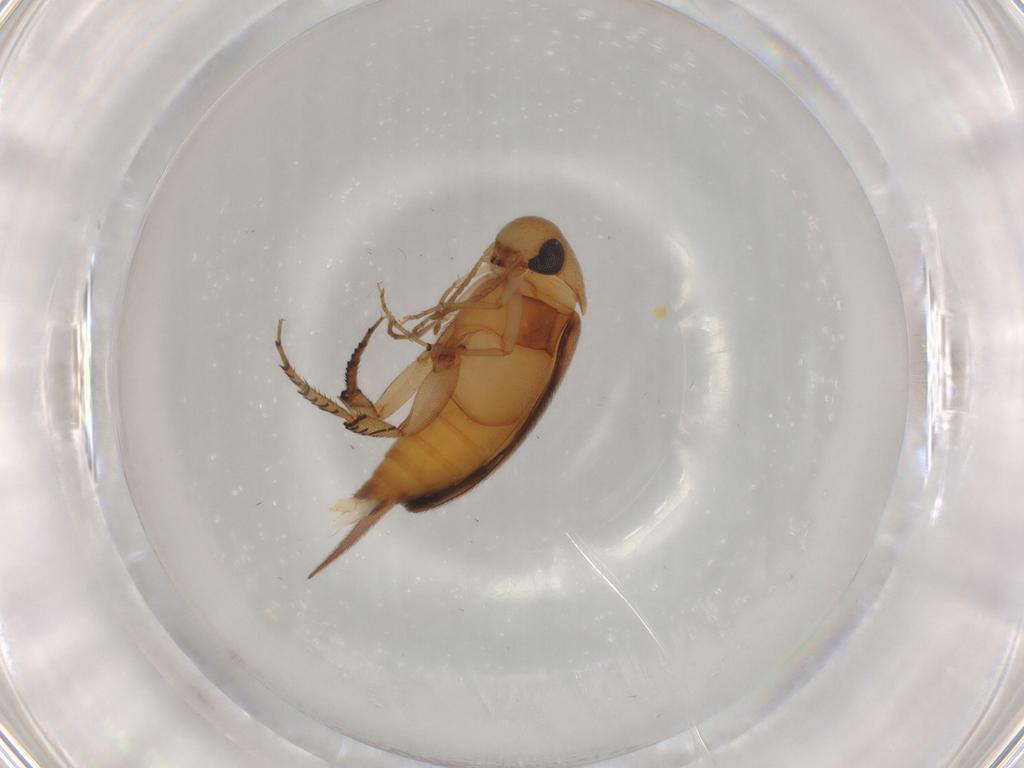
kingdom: Animalia
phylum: Arthropoda
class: Insecta
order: Coleoptera
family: Mordellidae
